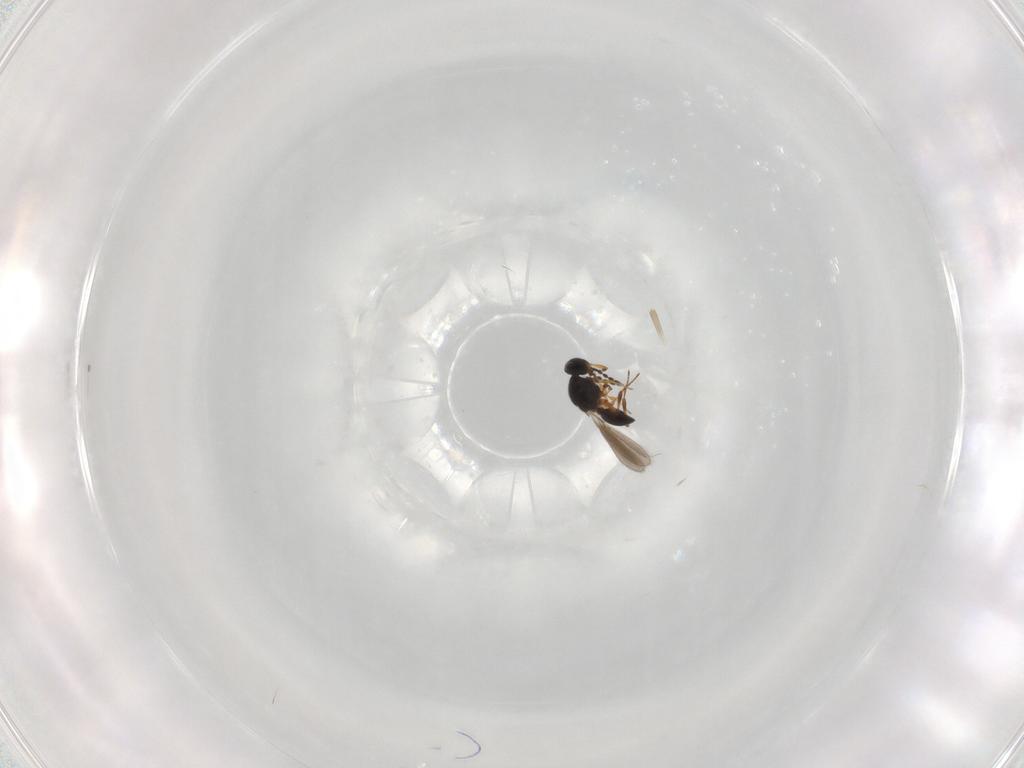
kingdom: Animalia
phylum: Arthropoda
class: Insecta
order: Hymenoptera
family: Platygastridae
